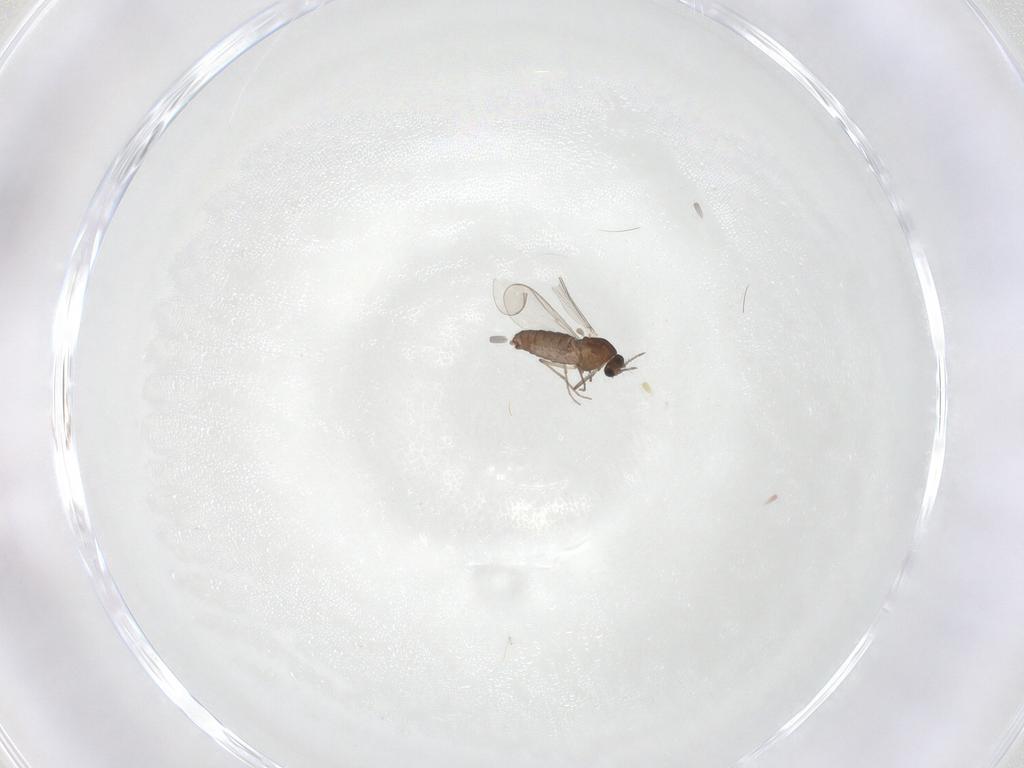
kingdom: Animalia
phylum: Arthropoda
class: Insecta
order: Diptera
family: Chironomidae
